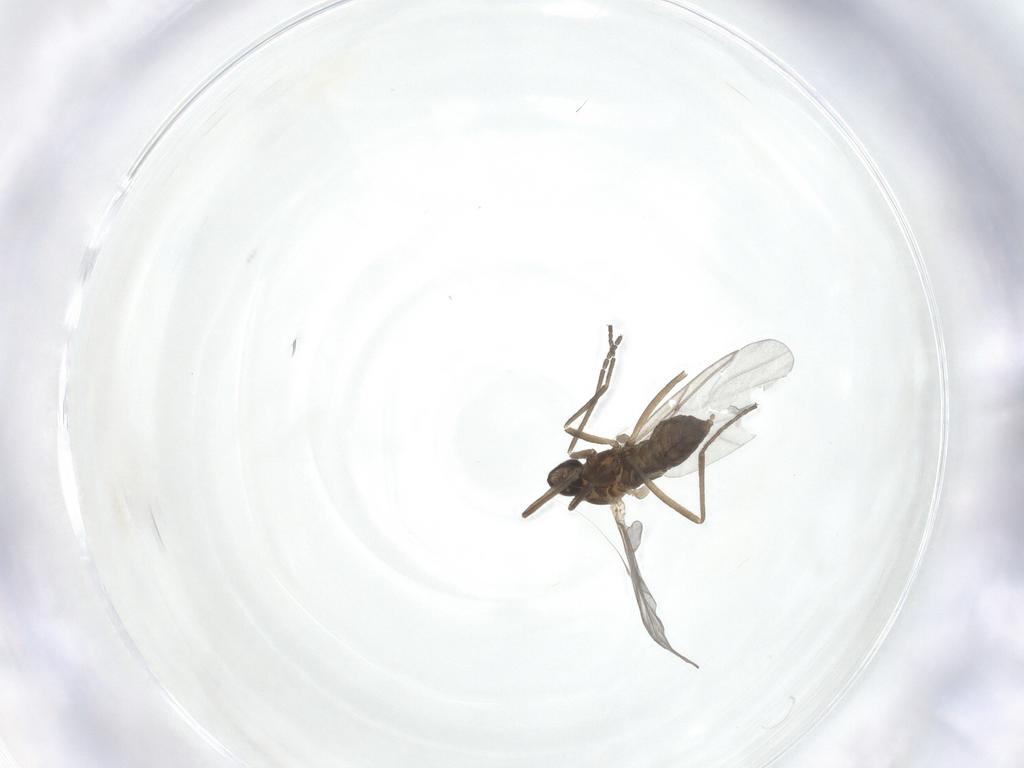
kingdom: Animalia
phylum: Arthropoda
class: Insecta
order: Diptera
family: Cecidomyiidae
